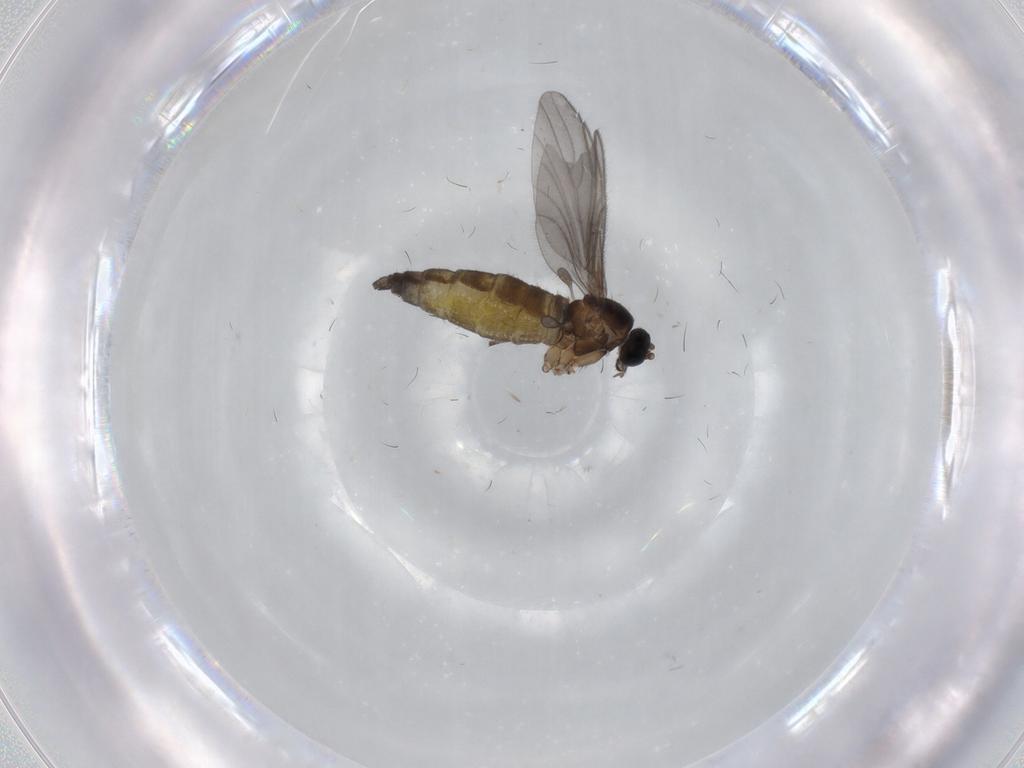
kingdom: Animalia
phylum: Arthropoda
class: Insecta
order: Diptera
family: Sciaridae
